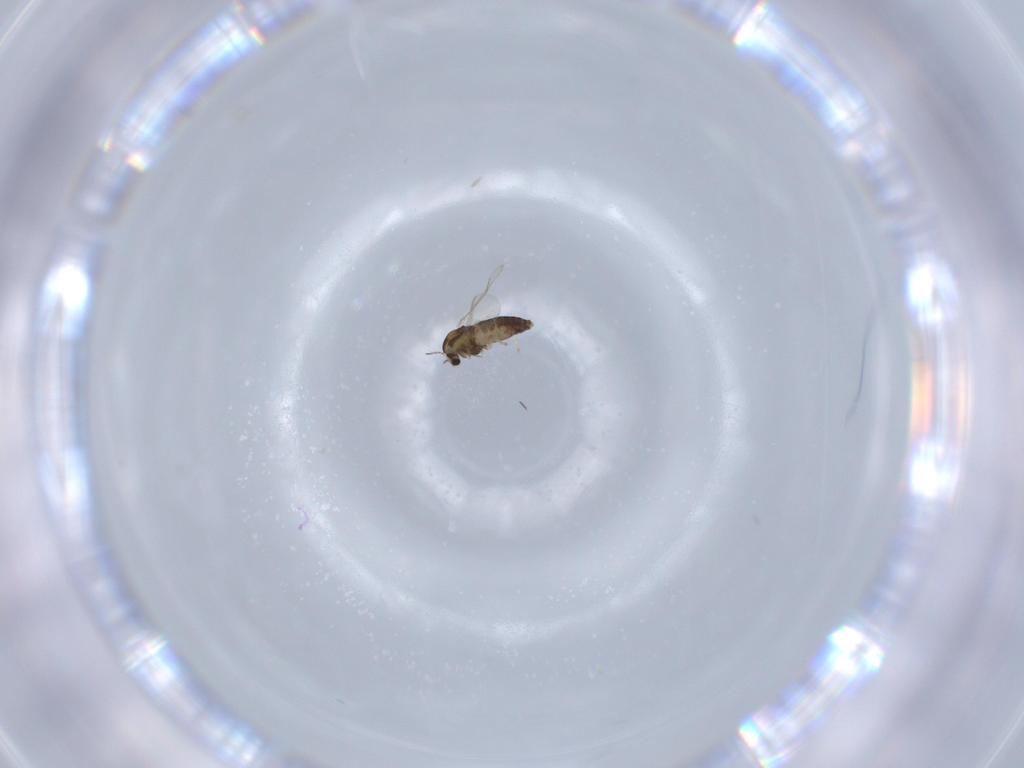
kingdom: Animalia
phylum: Arthropoda
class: Insecta
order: Diptera
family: Chironomidae
